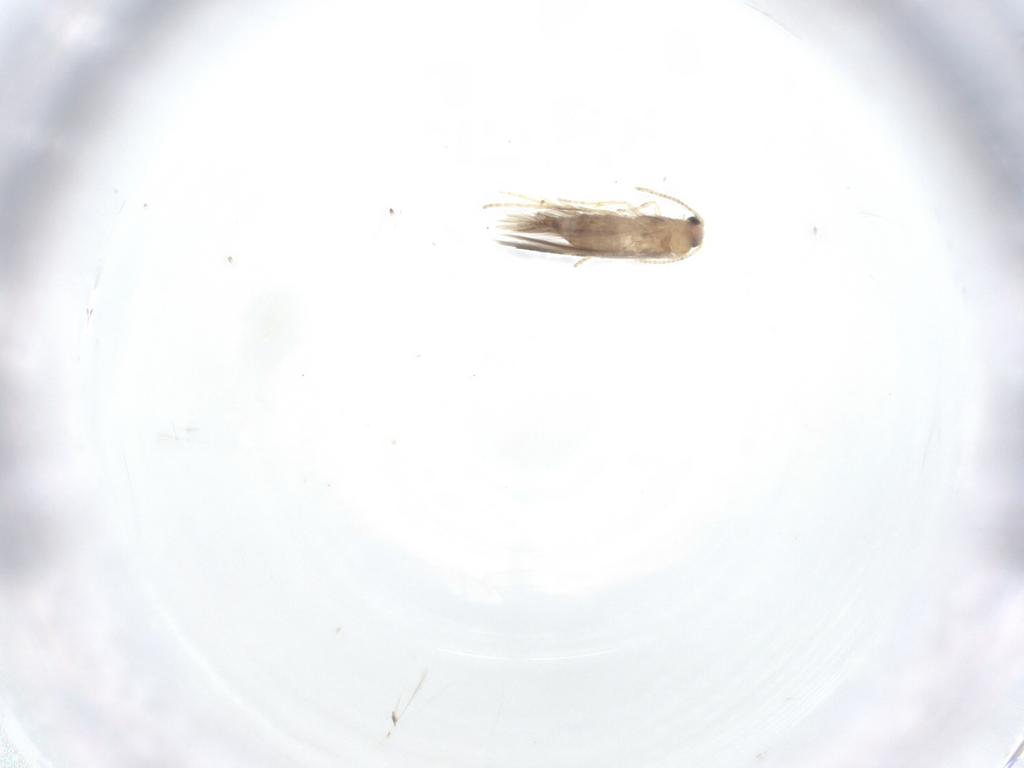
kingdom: Animalia
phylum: Arthropoda
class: Insecta
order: Lepidoptera
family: Nepticulidae
